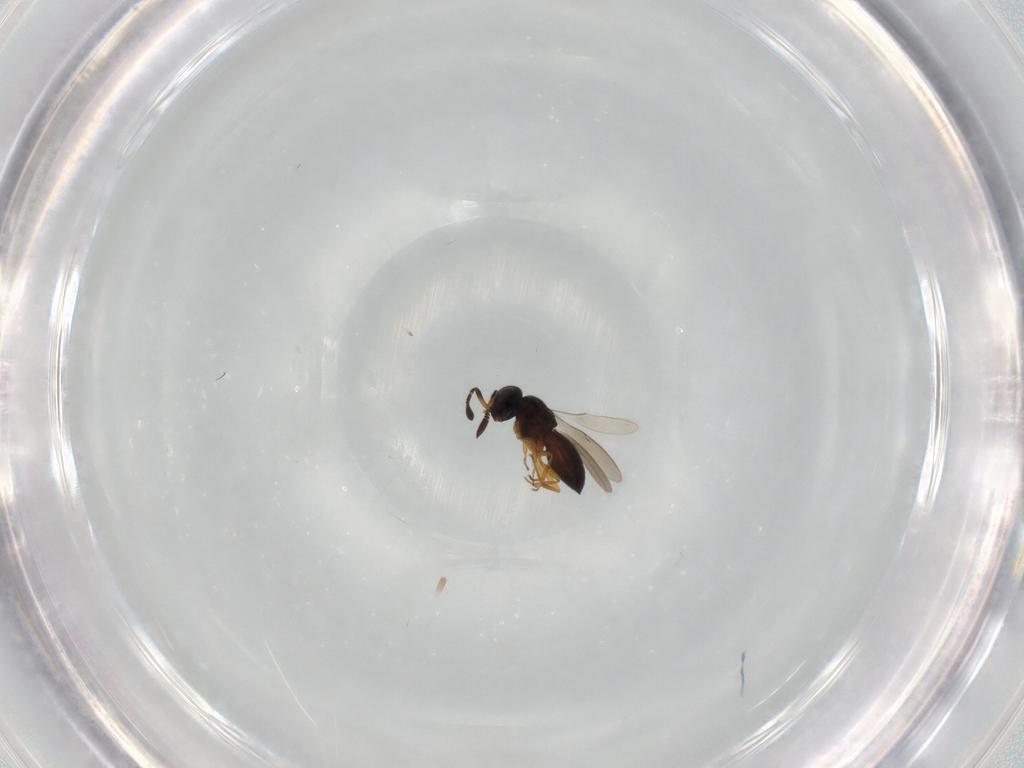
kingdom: Animalia
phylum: Arthropoda
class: Insecta
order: Hymenoptera
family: Scelionidae
